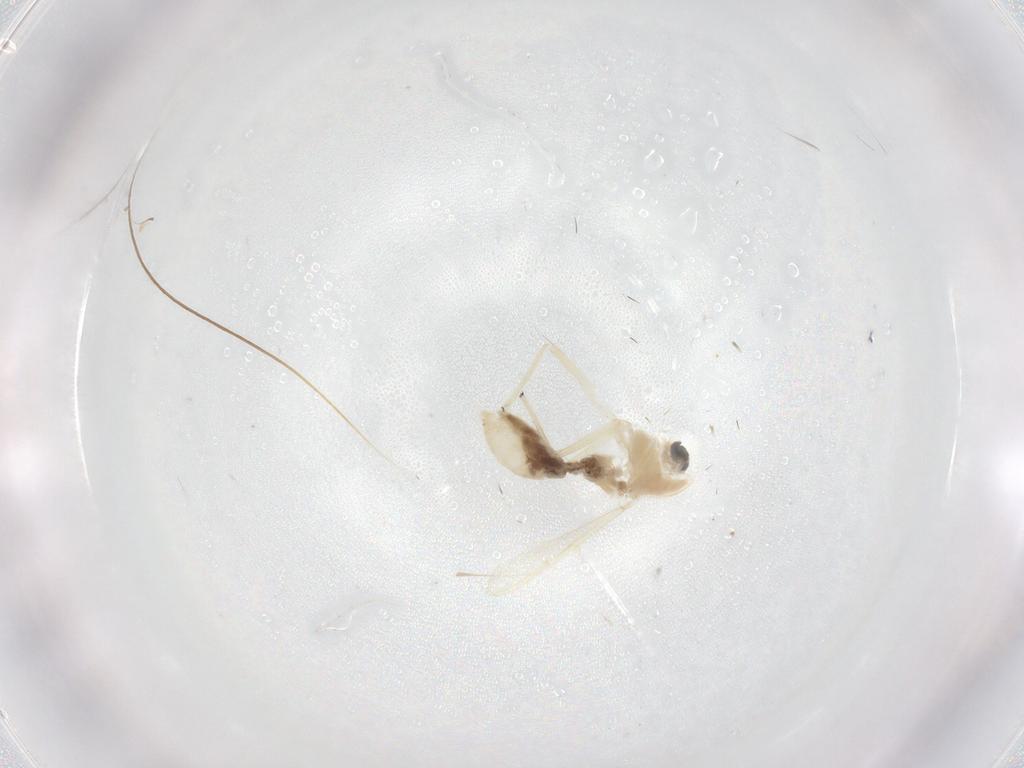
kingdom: Animalia
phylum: Arthropoda
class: Insecta
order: Diptera
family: Chironomidae
